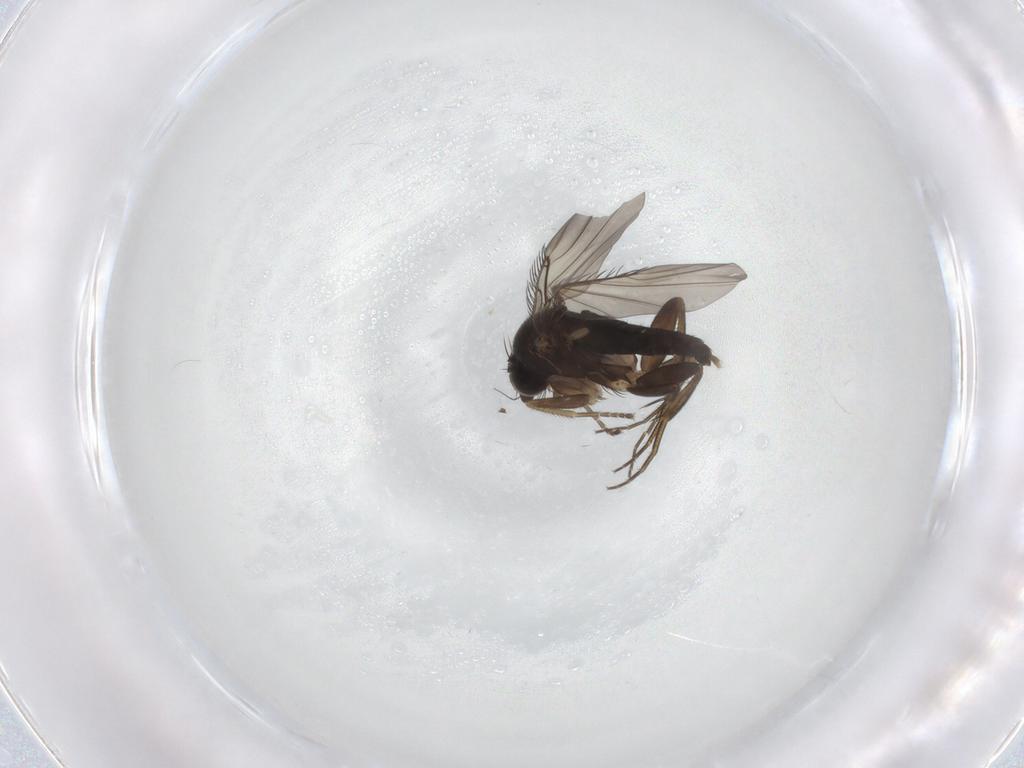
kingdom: Animalia
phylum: Arthropoda
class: Insecta
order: Diptera
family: Phoridae
